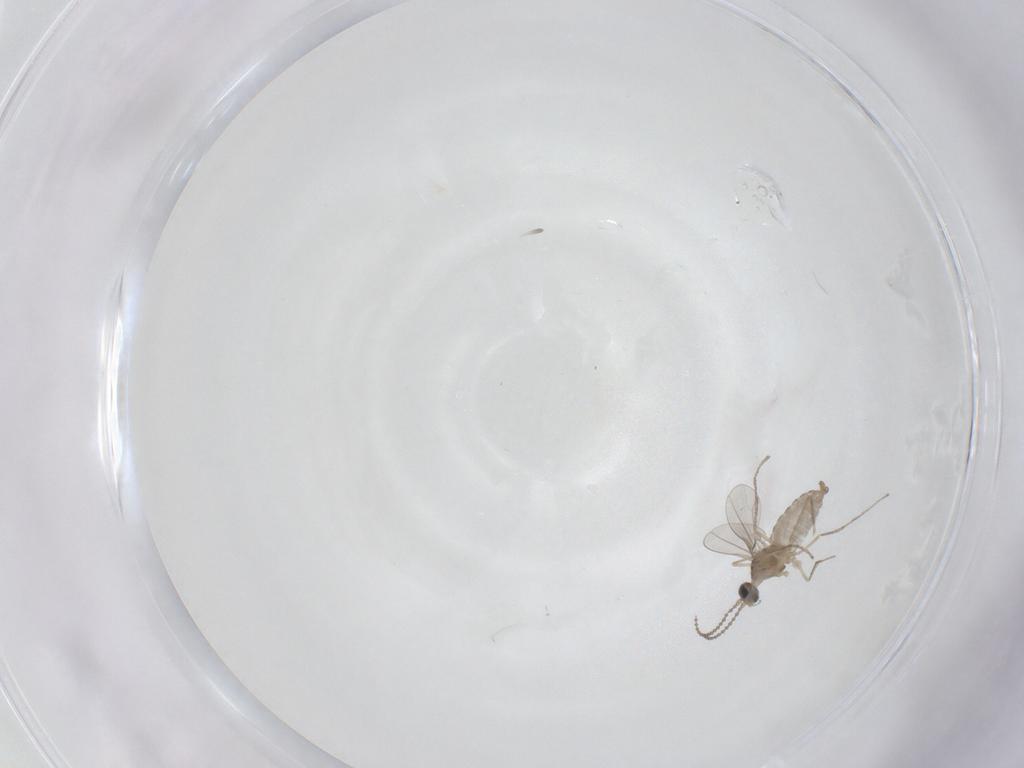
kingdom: Animalia
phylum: Arthropoda
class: Insecta
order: Diptera
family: Cecidomyiidae
